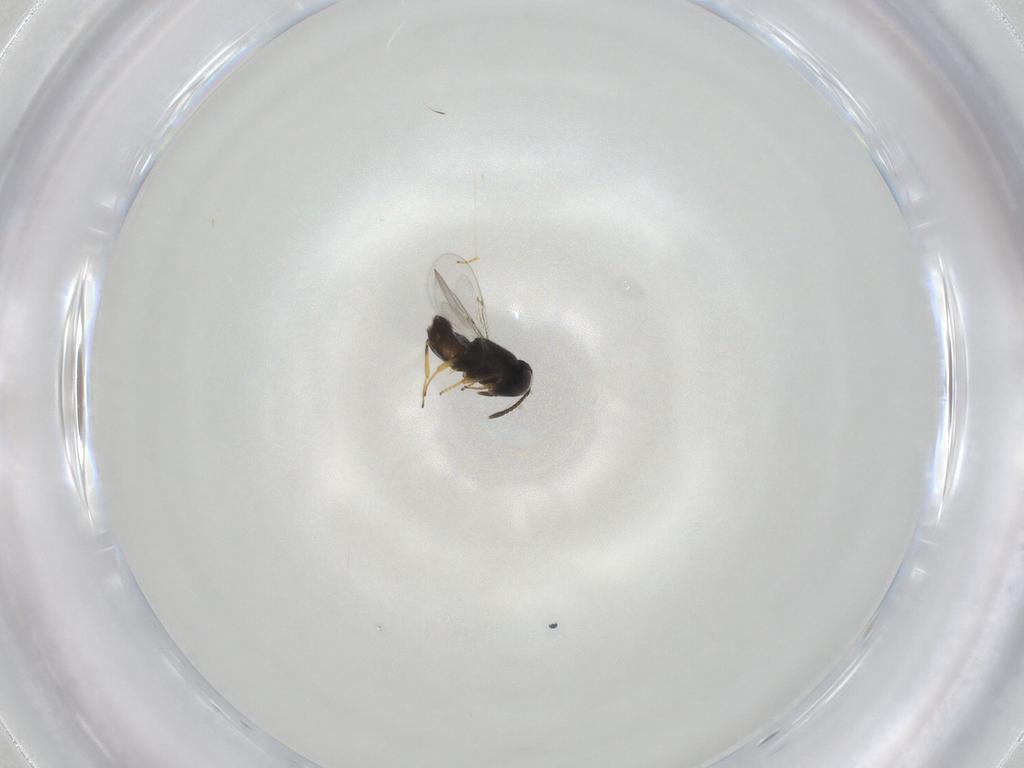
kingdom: Animalia
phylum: Arthropoda
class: Insecta
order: Hymenoptera
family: Encyrtidae
